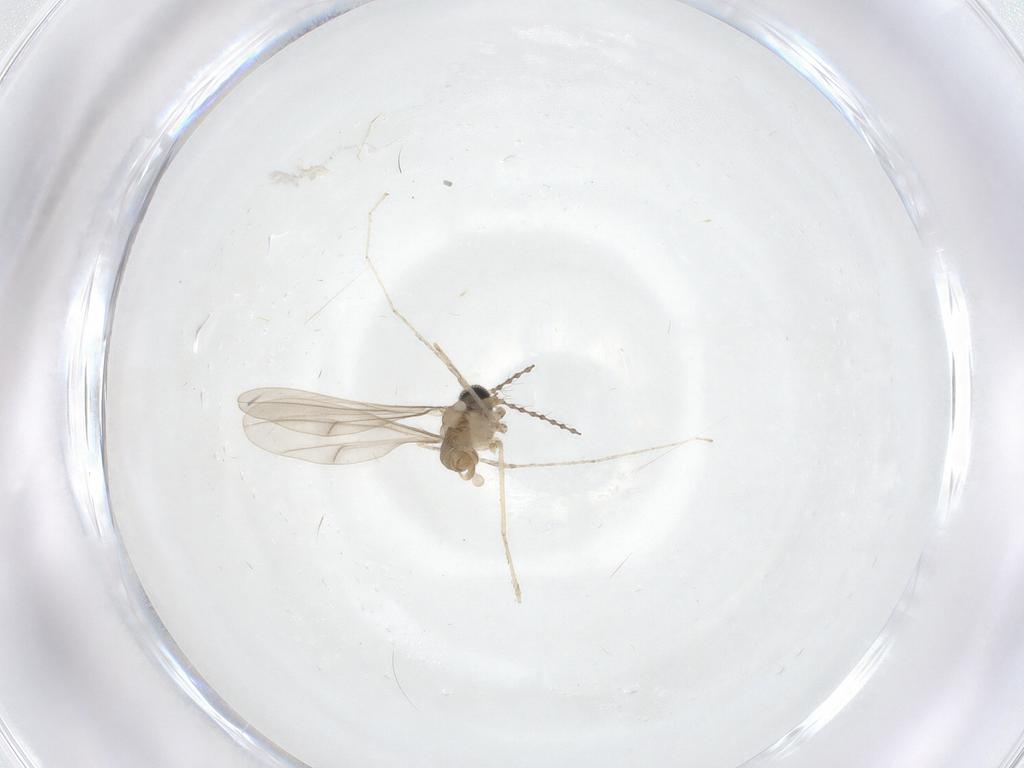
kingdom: Animalia
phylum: Arthropoda
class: Insecta
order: Diptera
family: Cecidomyiidae
